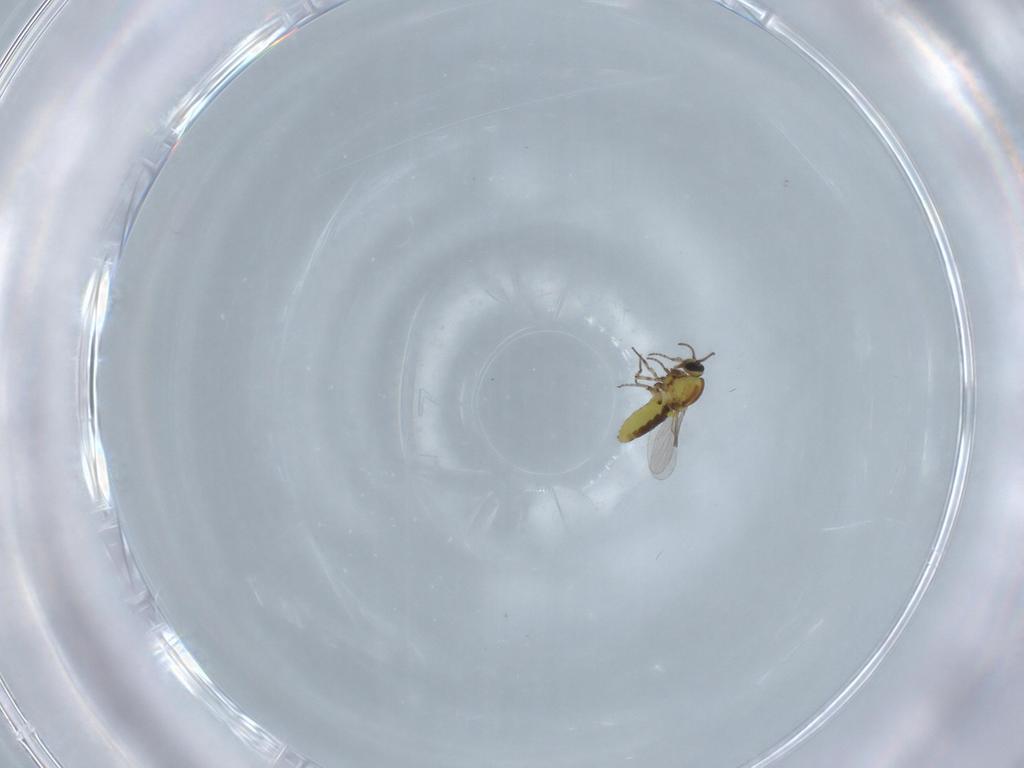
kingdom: Animalia
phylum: Arthropoda
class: Insecta
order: Diptera
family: Ceratopogonidae
